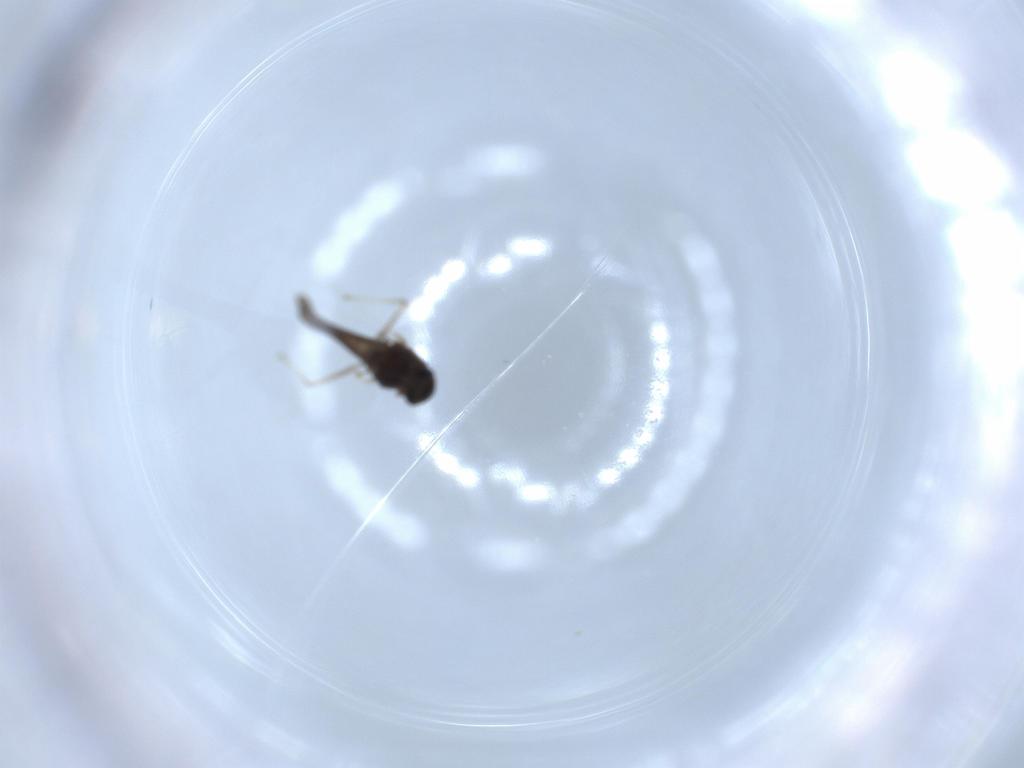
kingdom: Animalia
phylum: Arthropoda
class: Insecta
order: Diptera
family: Chironomidae
